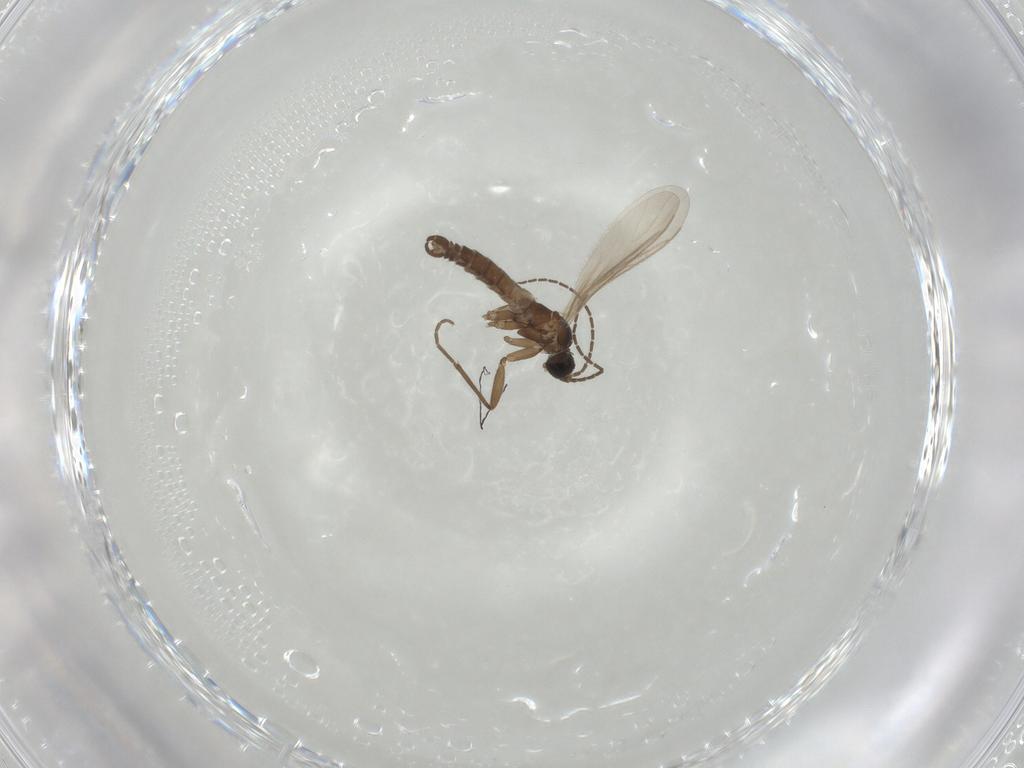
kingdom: Animalia
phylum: Arthropoda
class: Insecta
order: Diptera
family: Sciaridae
